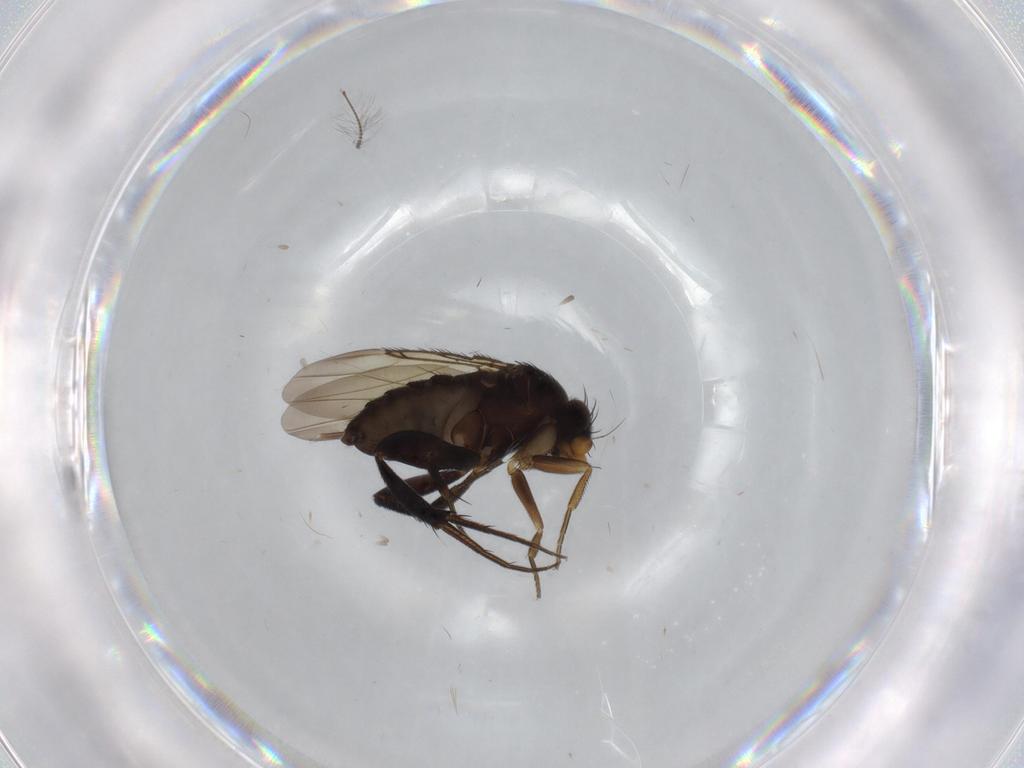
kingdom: Animalia
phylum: Arthropoda
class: Insecta
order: Diptera
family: Phoridae
